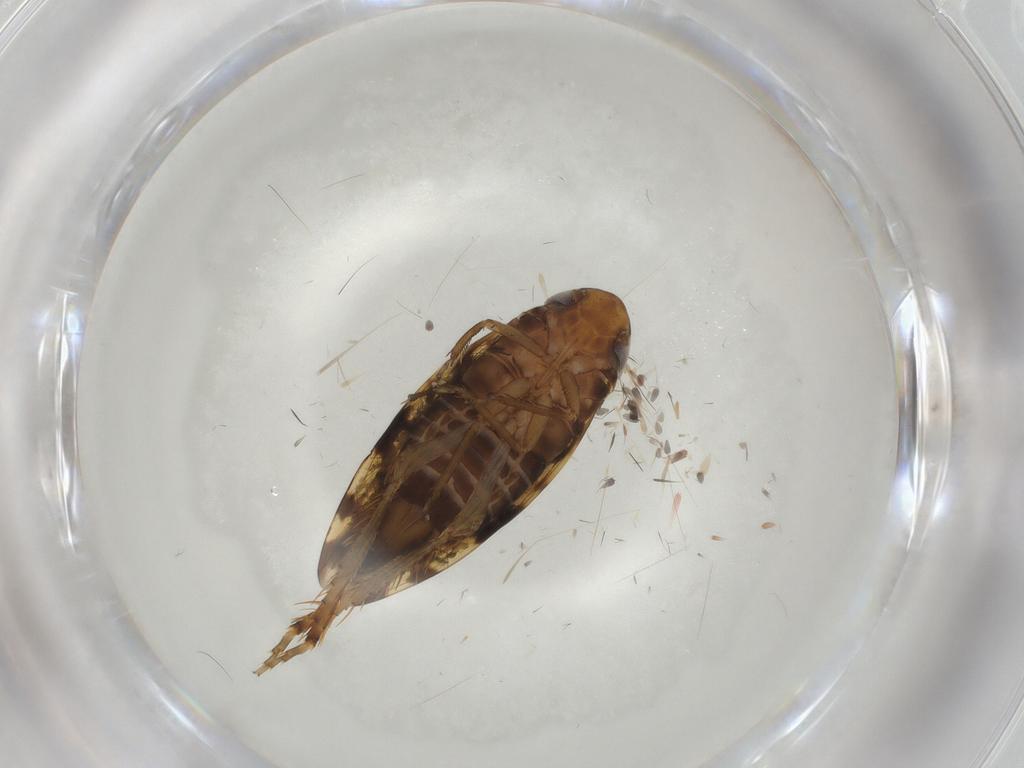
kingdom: Animalia
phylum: Arthropoda
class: Insecta
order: Hemiptera
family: Cicadellidae
